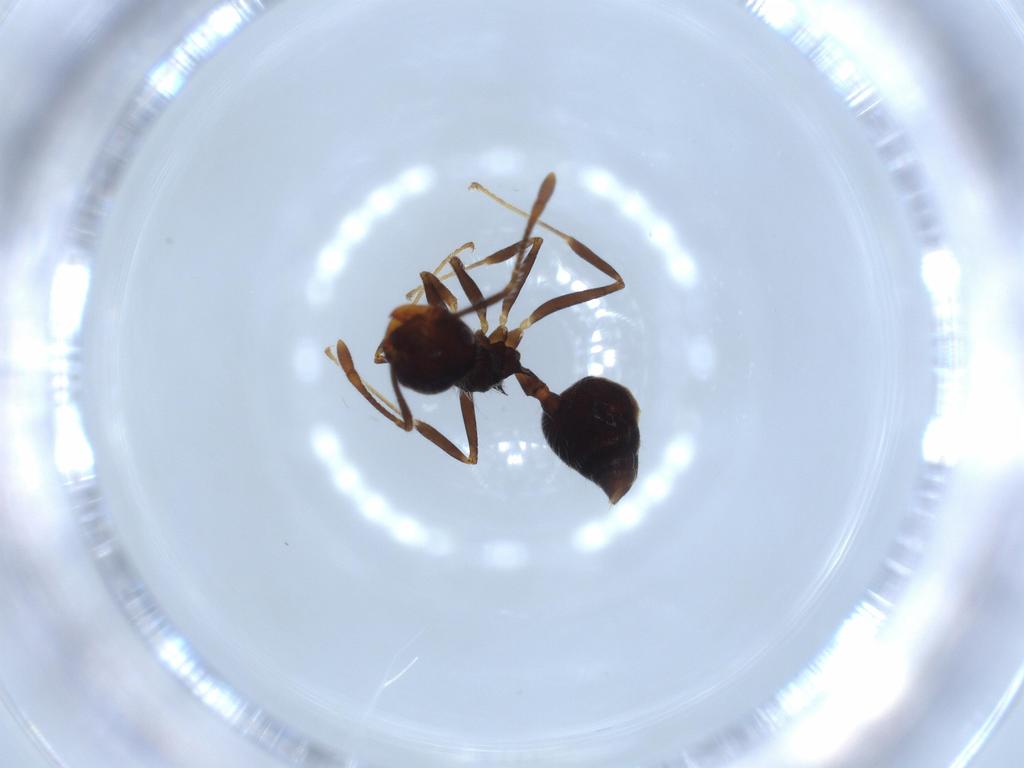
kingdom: Animalia
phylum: Arthropoda
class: Insecta
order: Hymenoptera
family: Formicidae
